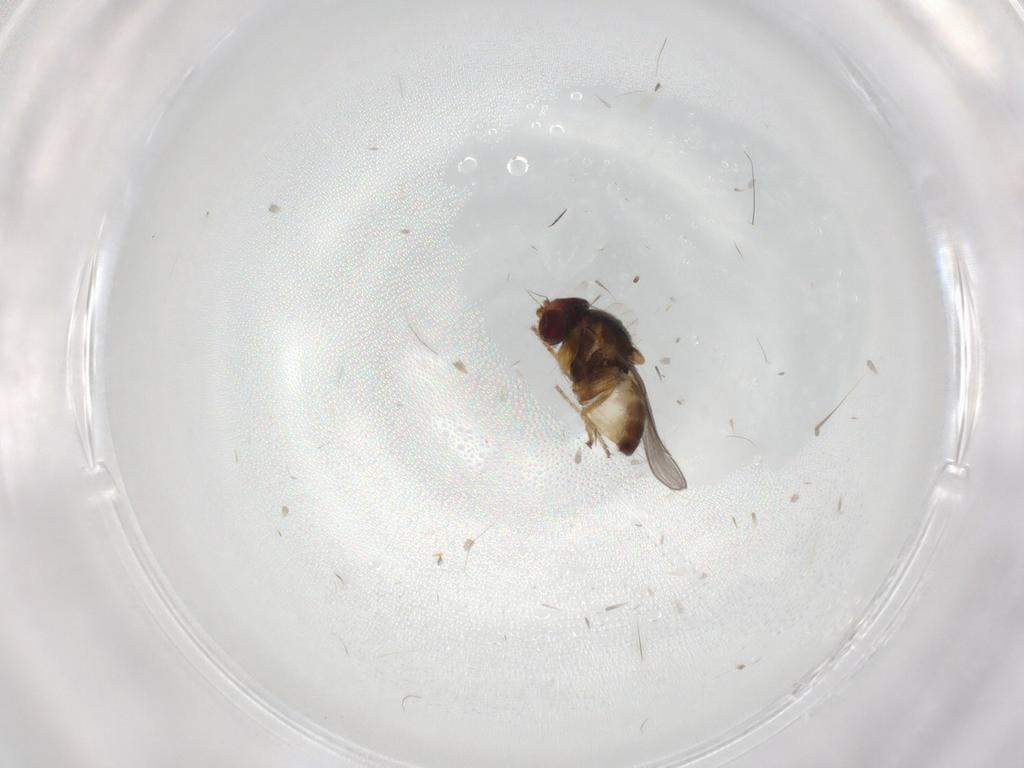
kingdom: Animalia
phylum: Arthropoda
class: Insecta
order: Diptera
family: Chloropidae
